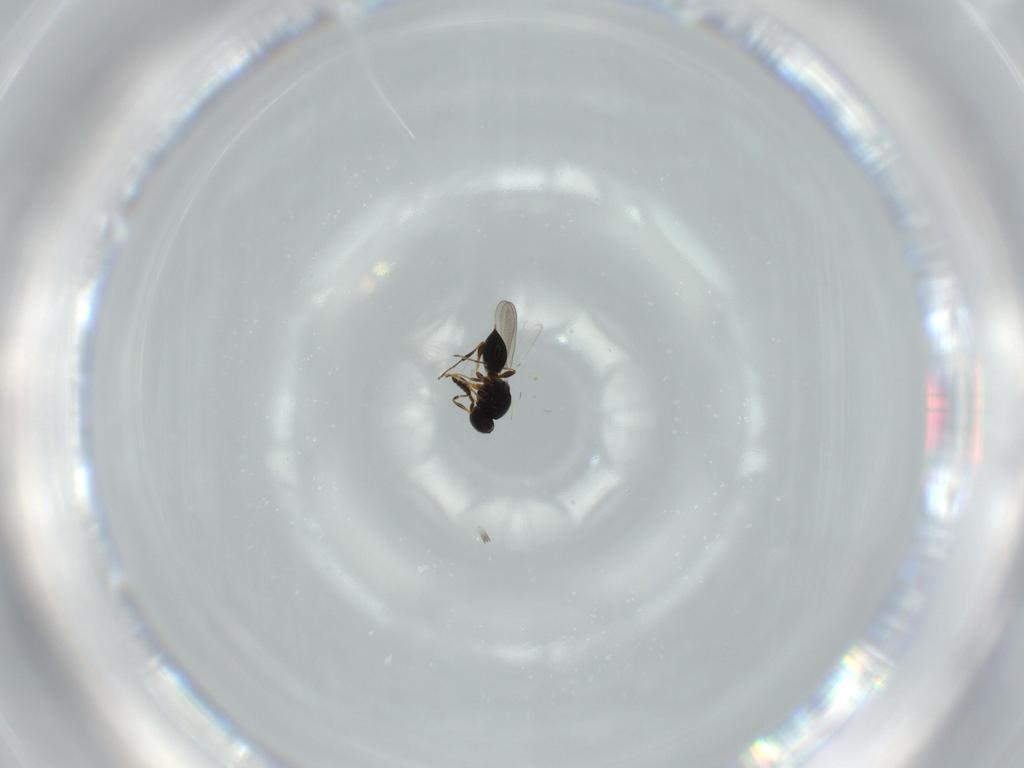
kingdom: Animalia
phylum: Arthropoda
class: Insecta
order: Hymenoptera
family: Platygastridae
